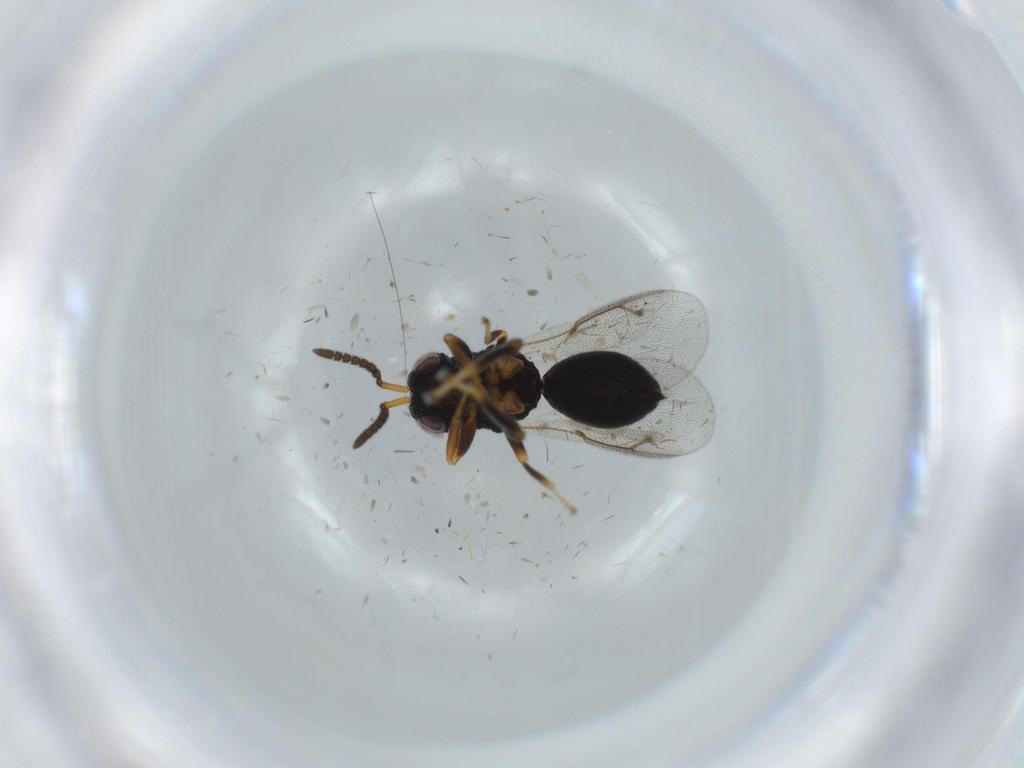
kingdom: Animalia
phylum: Arthropoda
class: Insecta
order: Hymenoptera
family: Eurytomidae
